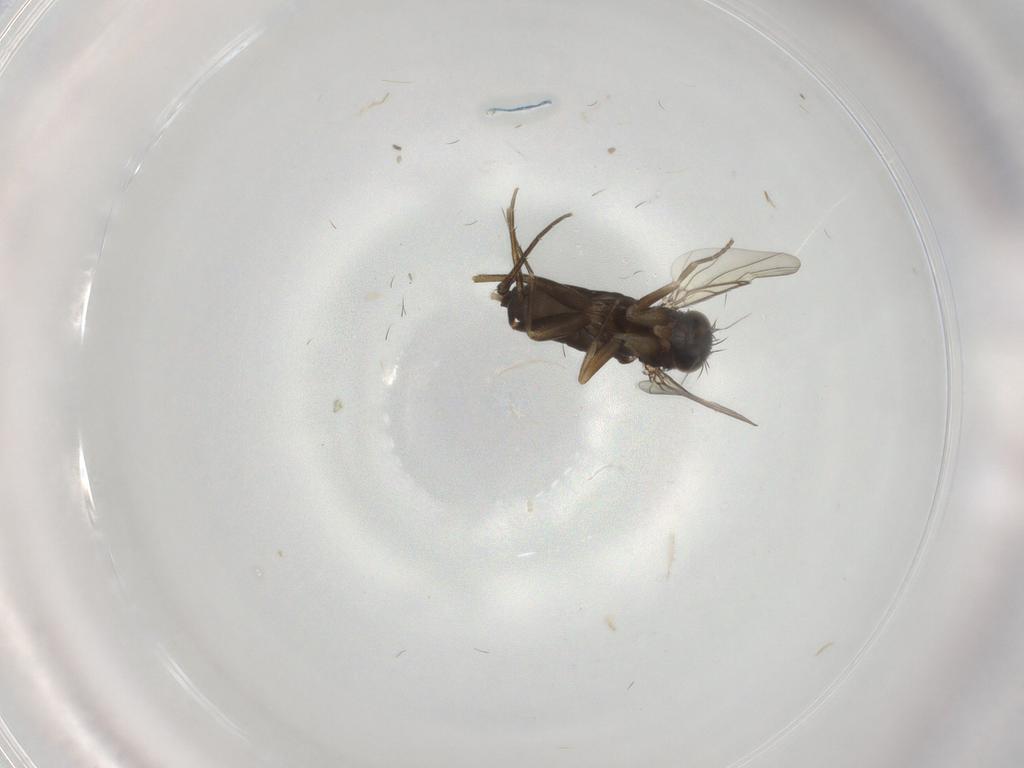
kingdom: Animalia
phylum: Arthropoda
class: Insecta
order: Diptera
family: Phoridae
